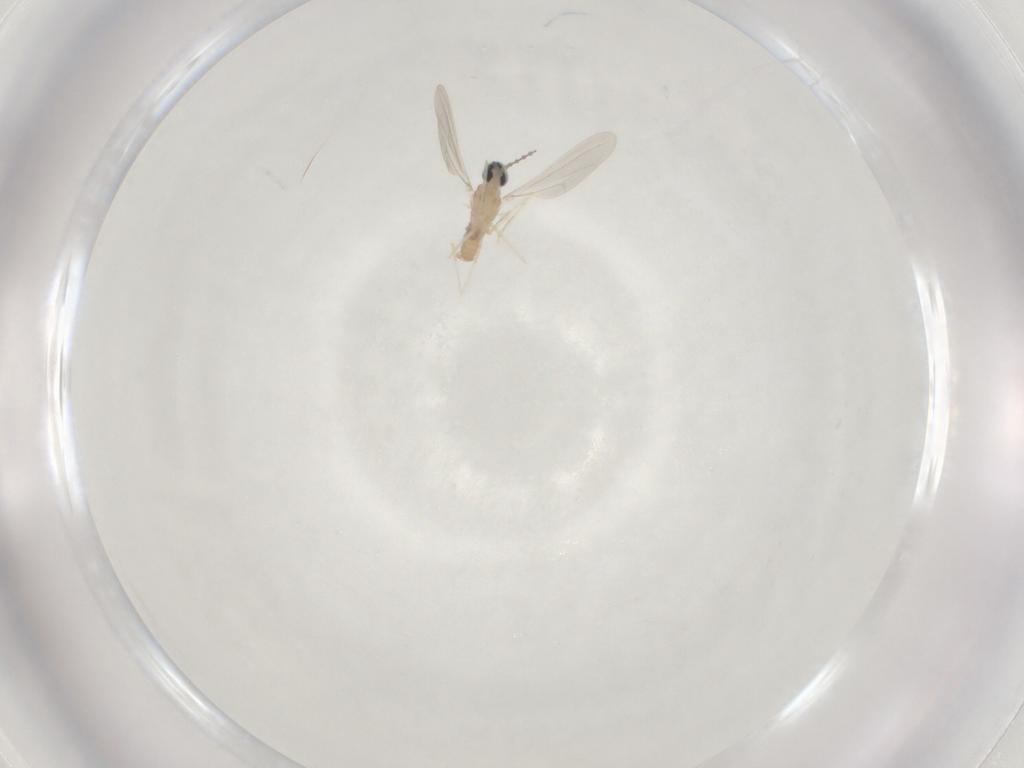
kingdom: Animalia
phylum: Arthropoda
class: Insecta
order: Diptera
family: Cecidomyiidae
